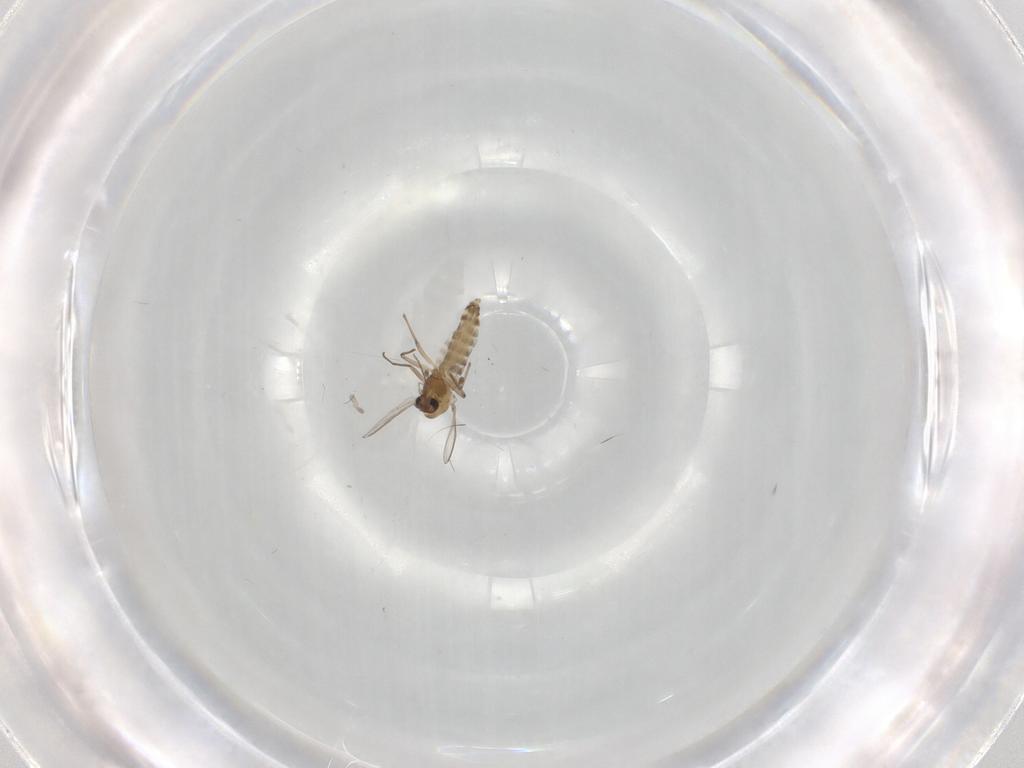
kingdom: Animalia
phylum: Arthropoda
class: Insecta
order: Diptera
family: Chironomidae
